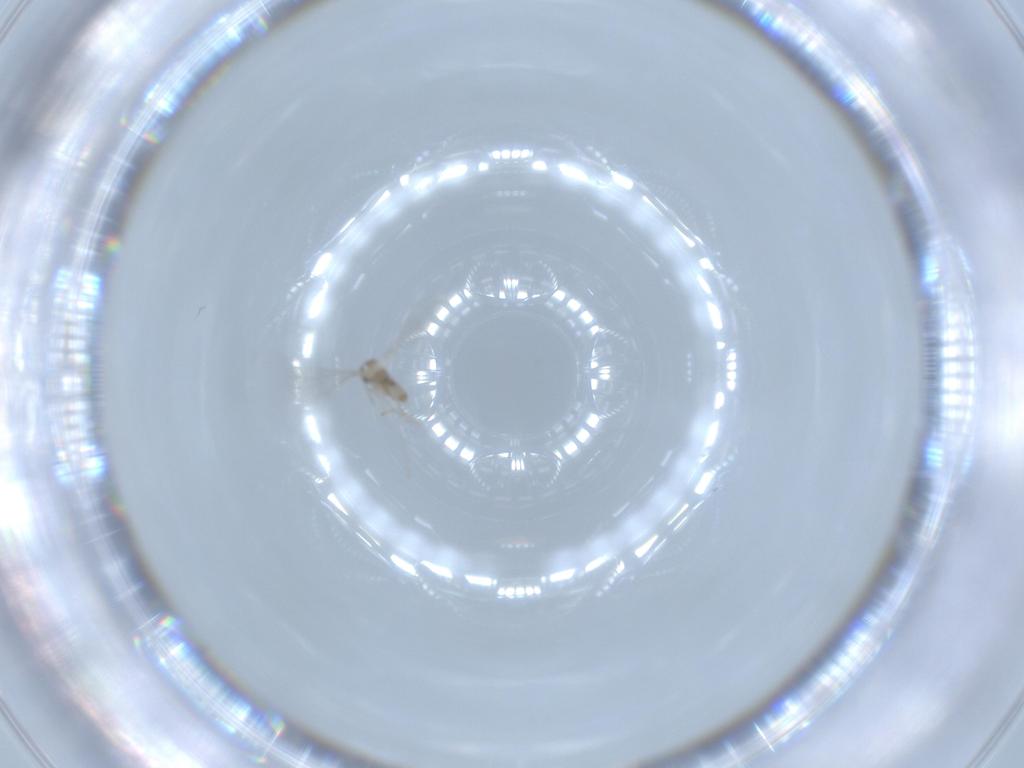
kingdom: Animalia
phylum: Arthropoda
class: Insecta
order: Diptera
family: Cecidomyiidae
